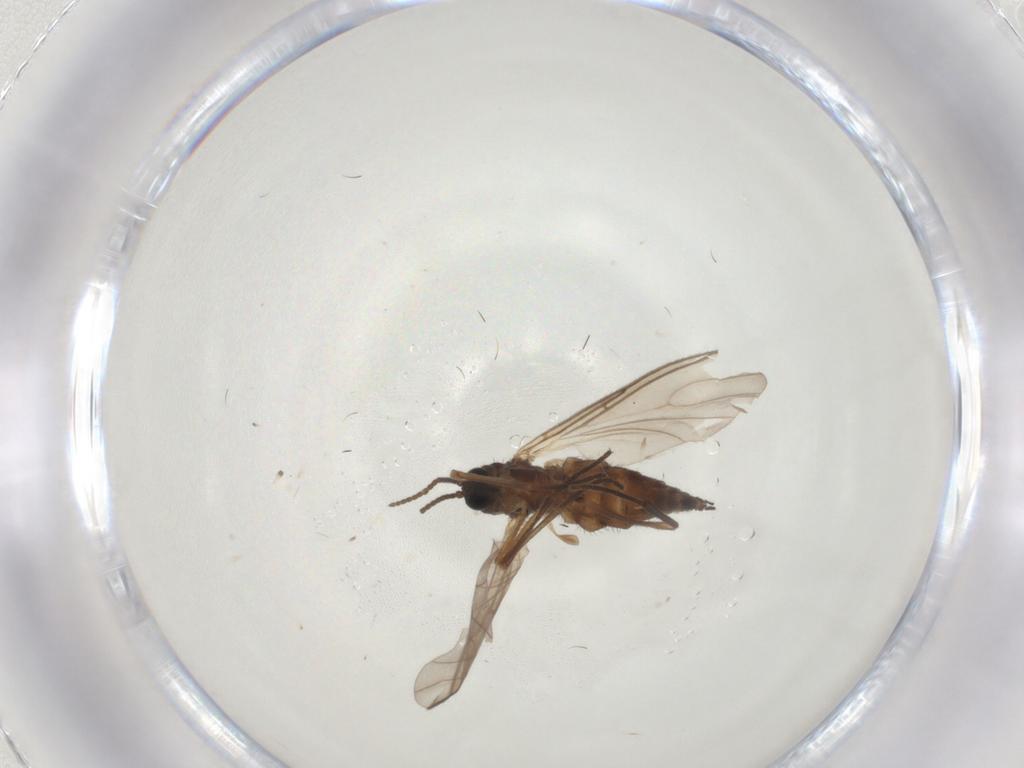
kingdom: Animalia
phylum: Arthropoda
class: Insecta
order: Diptera
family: Sciaridae
